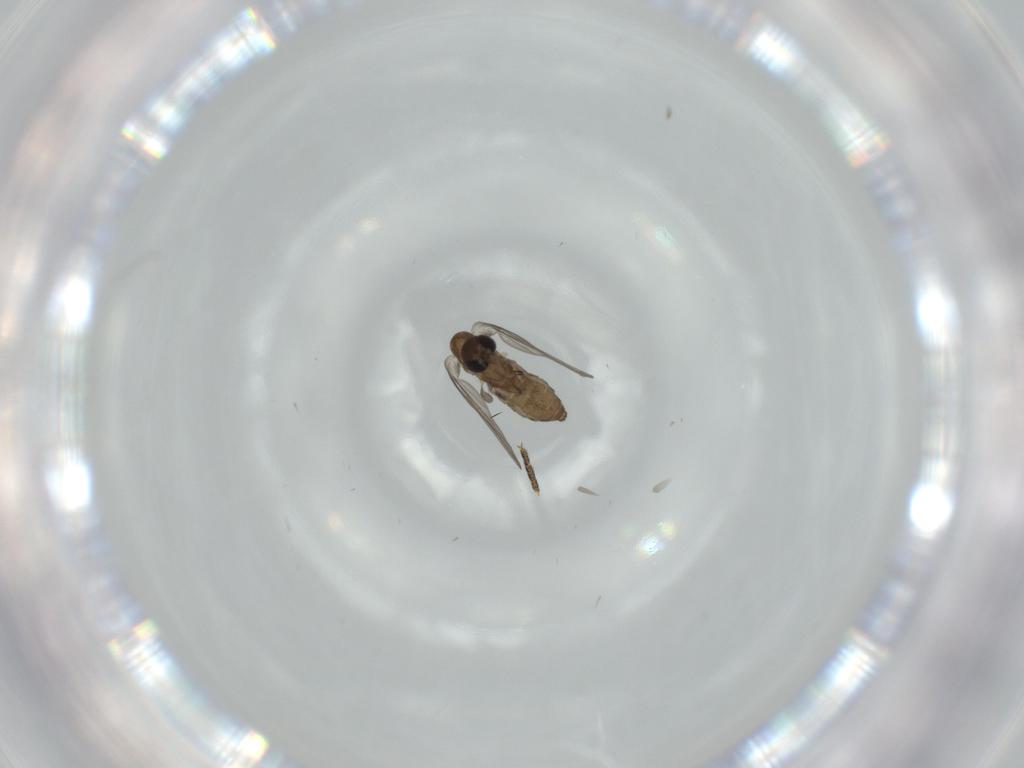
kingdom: Animalia
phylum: Arthropoda
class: Insecta
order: Diptera
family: Psychodidae
